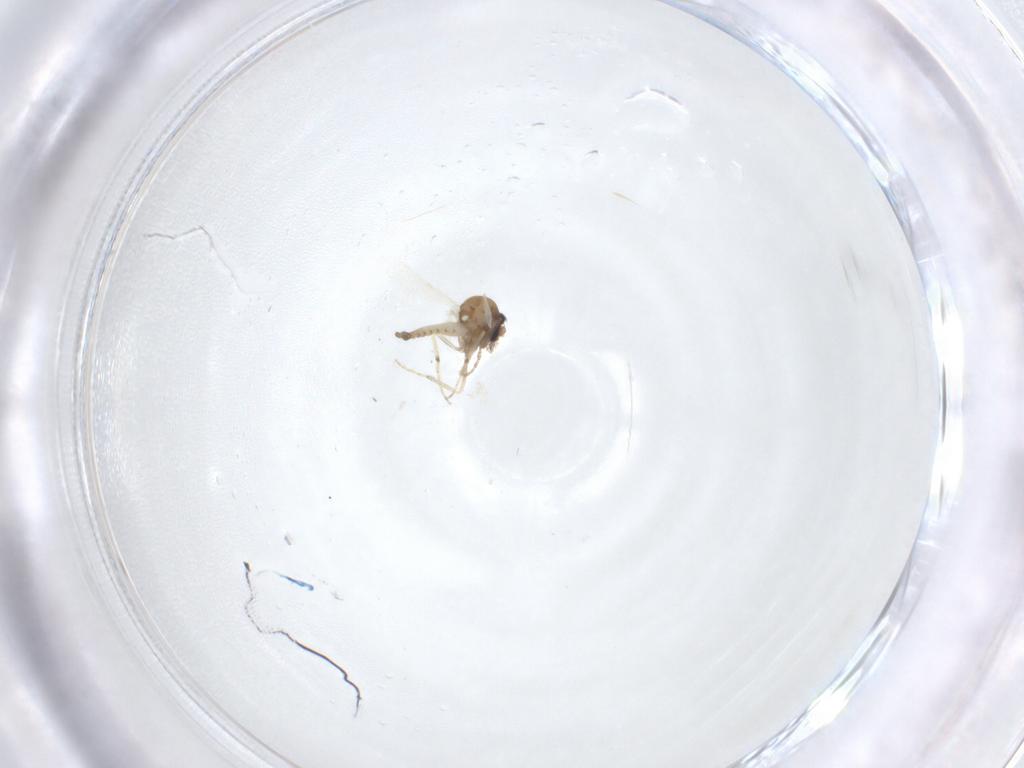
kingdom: Animalia
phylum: Arthropoda
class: Insecta
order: Diptera
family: Ceratopogonidae
